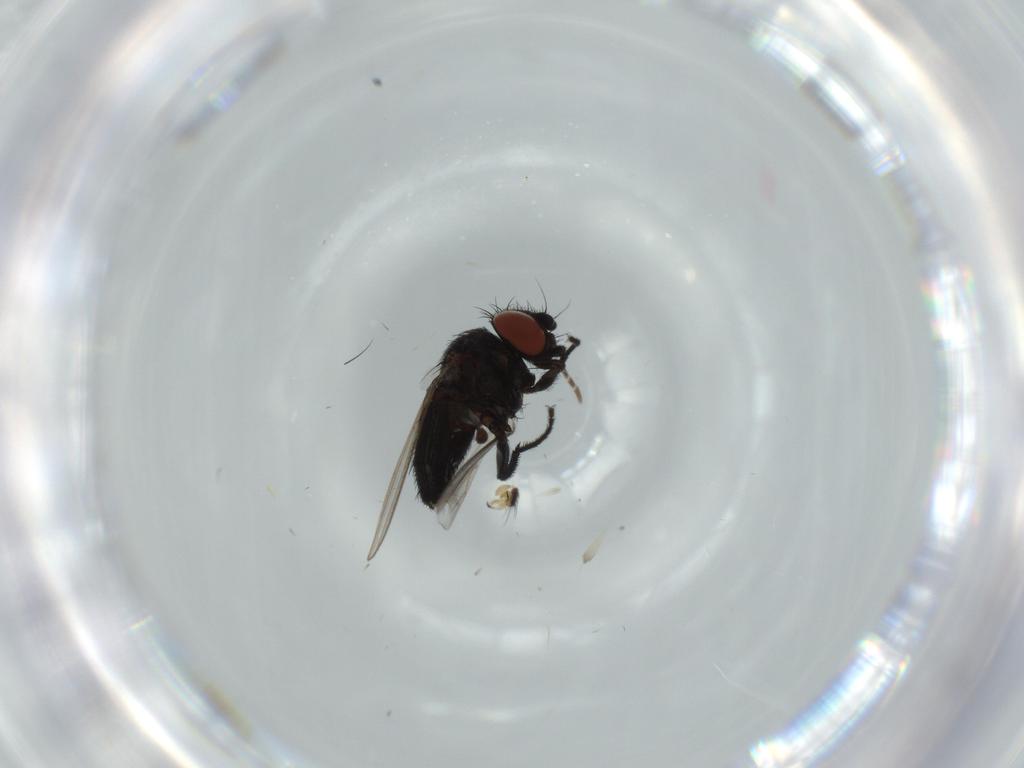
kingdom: Animalia
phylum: Arthropoda
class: Insecta
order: Diptera
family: Milichiidae
